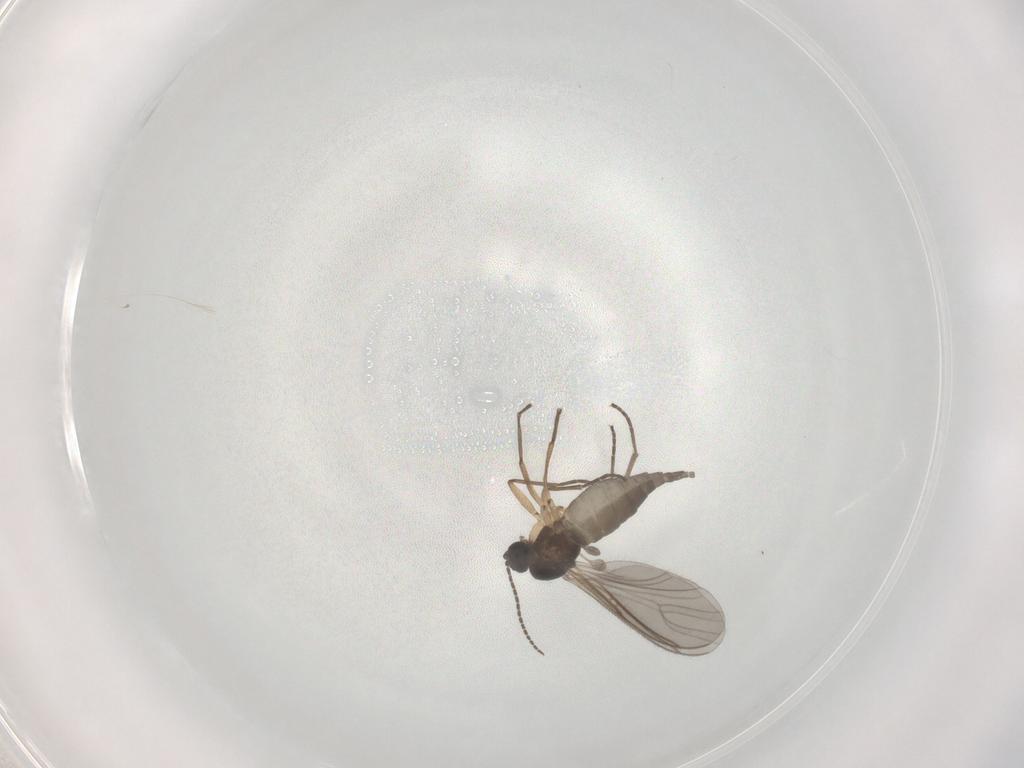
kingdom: Animalia
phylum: Arthropoda
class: Insecta
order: Diptera
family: Sciaridae
